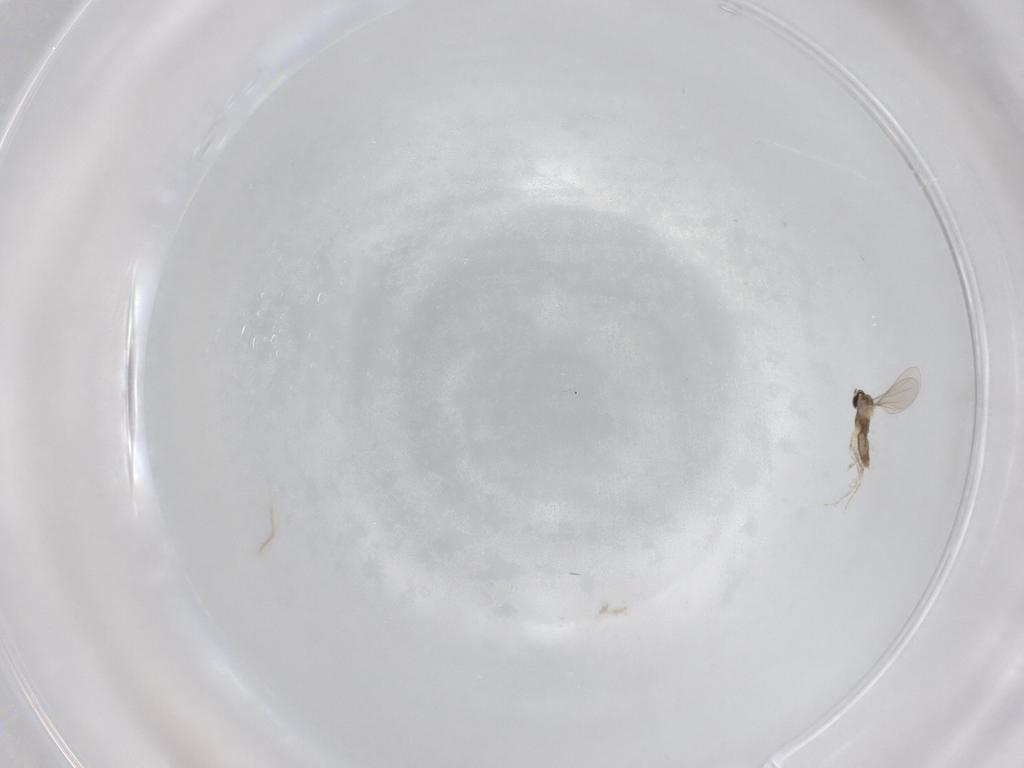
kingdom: Animalia
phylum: Arthropoda
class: Insecta
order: Diptera
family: Cecidomyiidae
